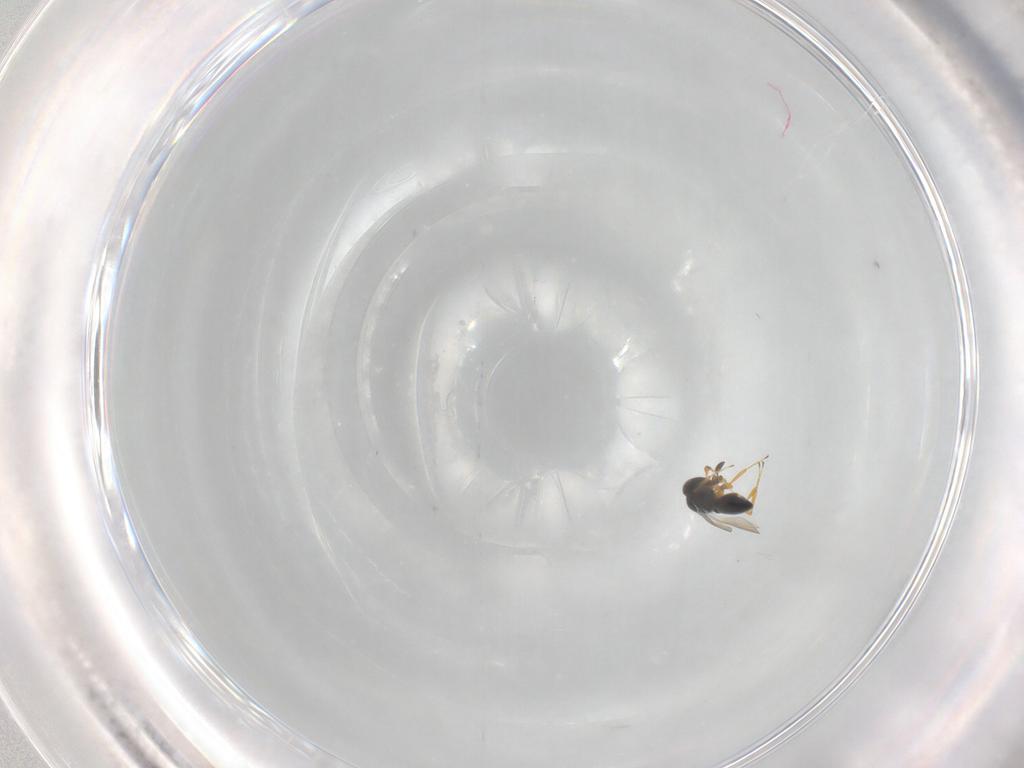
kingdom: Animalia
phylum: Arthropoda
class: Insecta
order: Hymenoptera
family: Platygastridae
